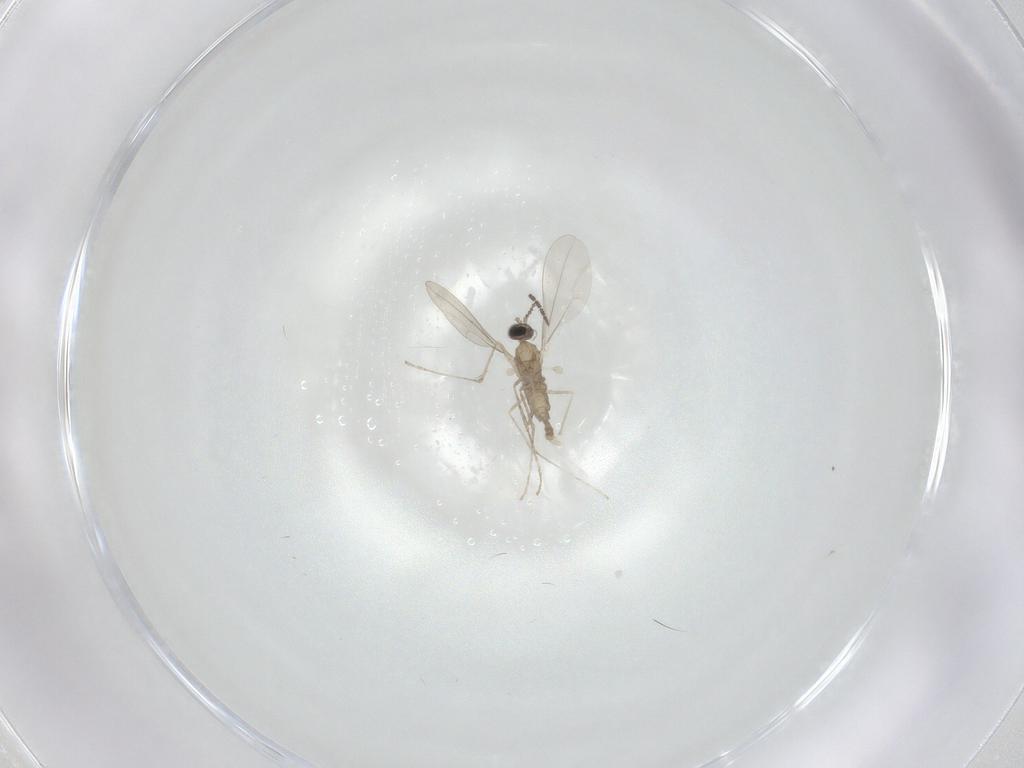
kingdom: Animalia
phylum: Arthropoda
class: Insecta
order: Diptera
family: Sciaridae
